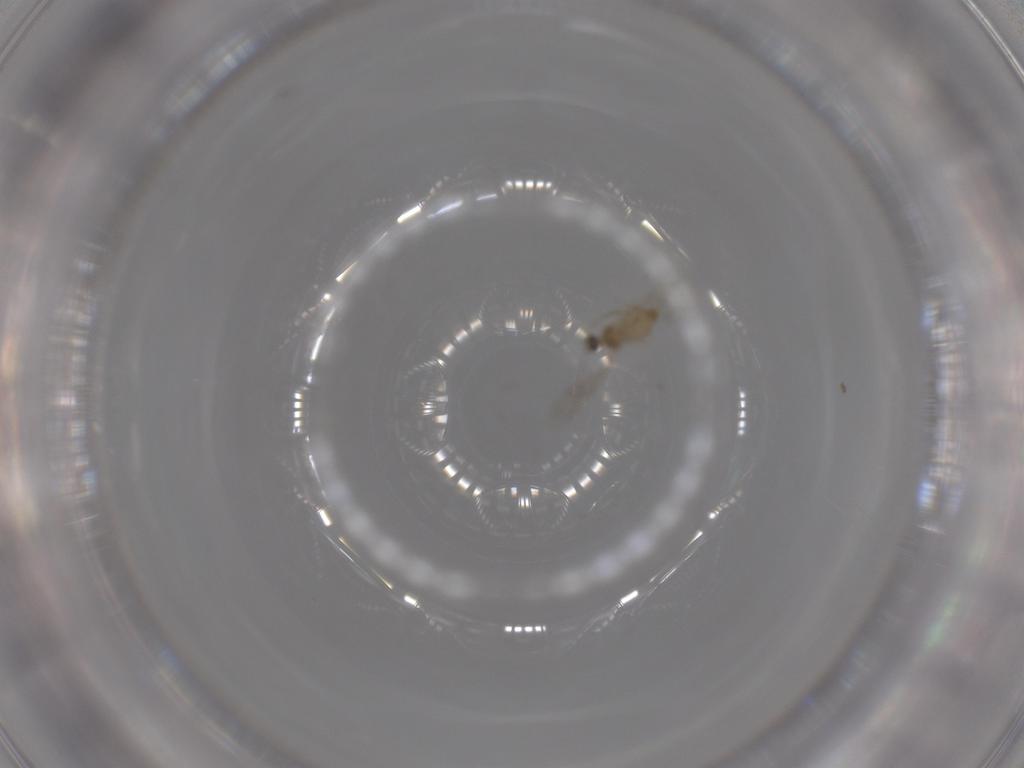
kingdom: Animalia
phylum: Arthropoda
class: Insecta
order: Diptera
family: Cecidomyiidae
